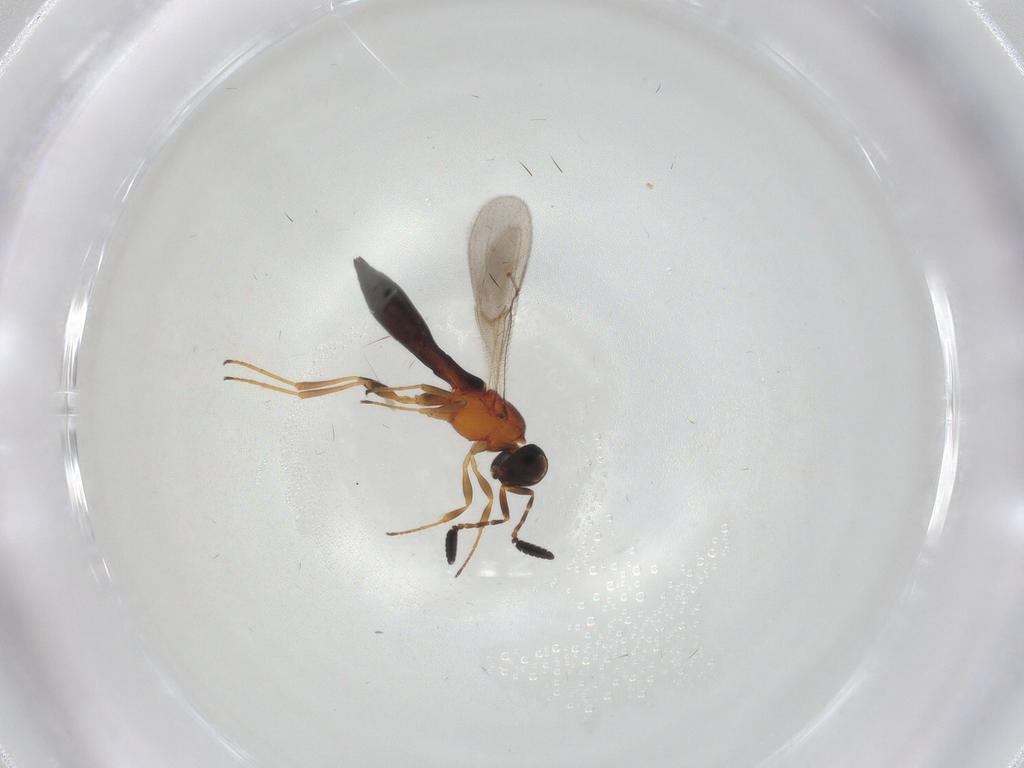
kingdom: Animalia
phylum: Arthropoda
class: Insecta
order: Hymenoptera
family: Scelionidae
